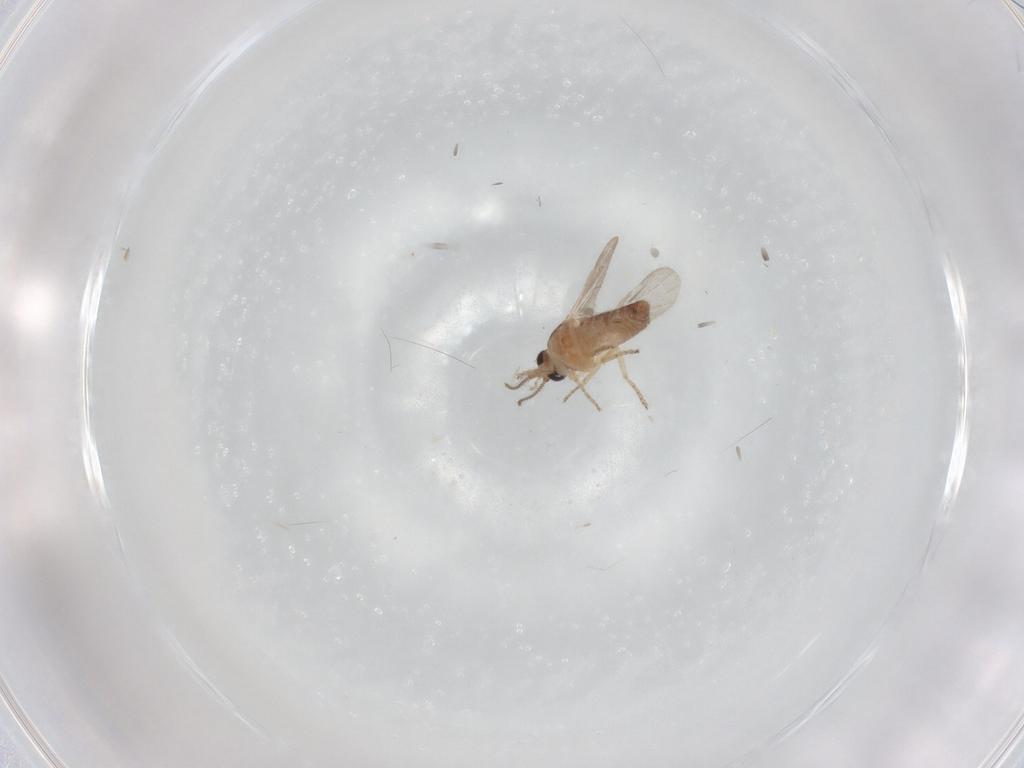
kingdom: Animalia
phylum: Arthropoda
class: Insecta
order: Diptera
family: Ceratopogonidae
